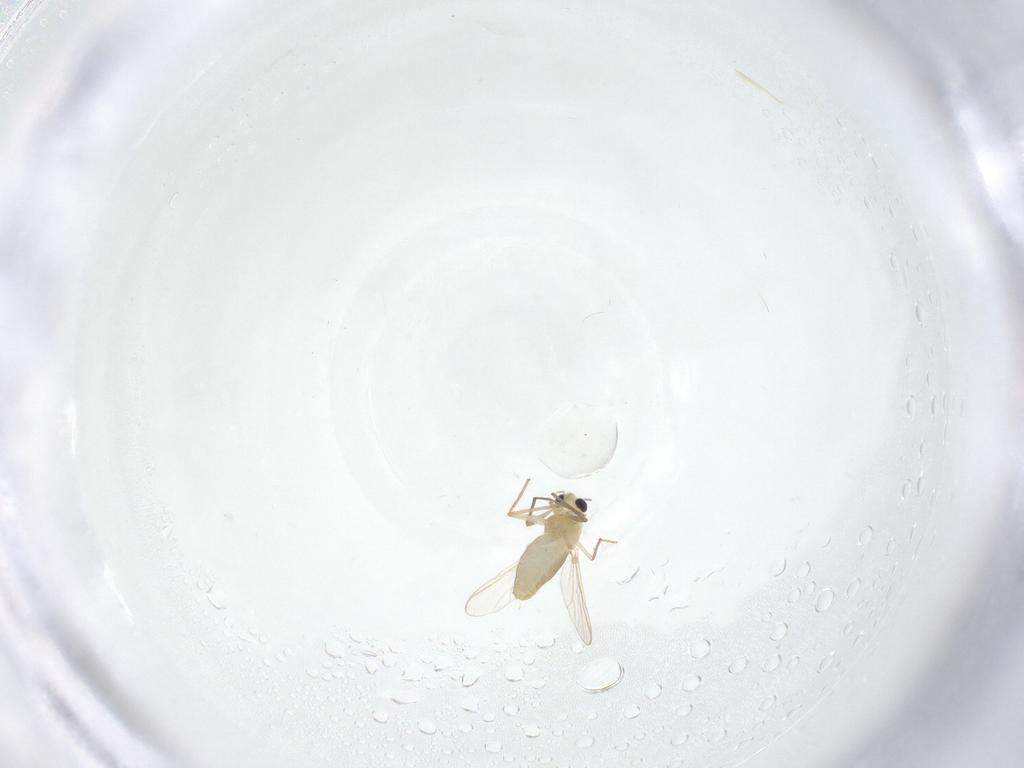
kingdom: Animalia
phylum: Arthropoda
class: Insecta
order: Diptera
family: Chironomidae
